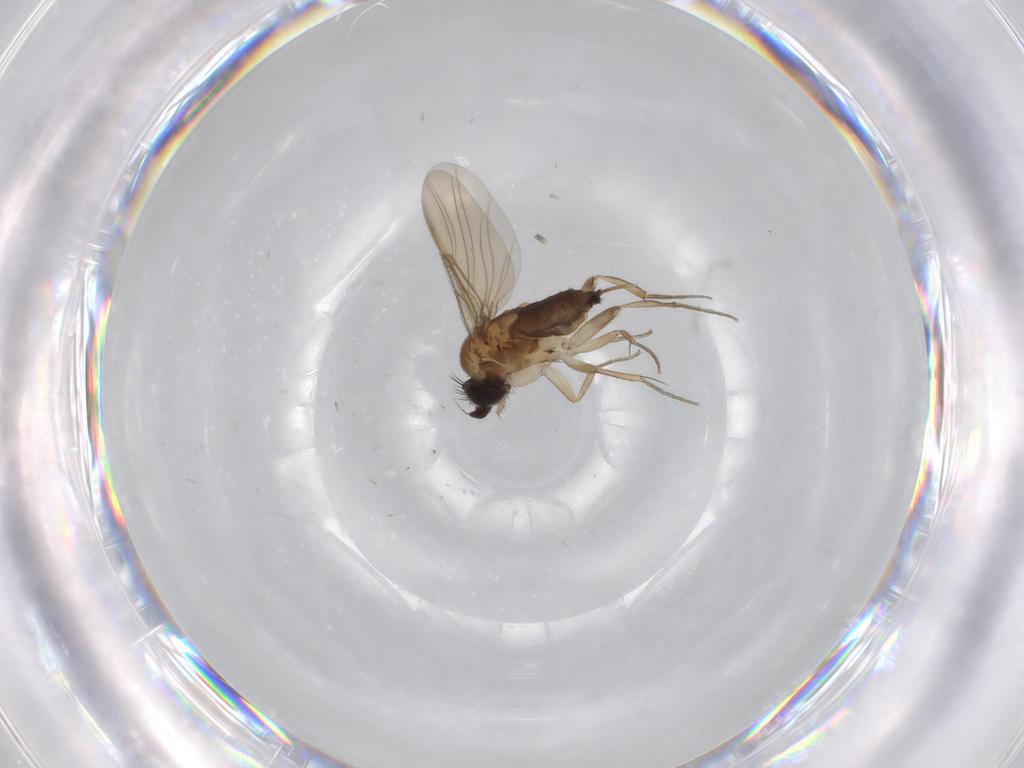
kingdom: Animalia
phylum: Arthropoda
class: Insecta
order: Diptera
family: Phoridae
